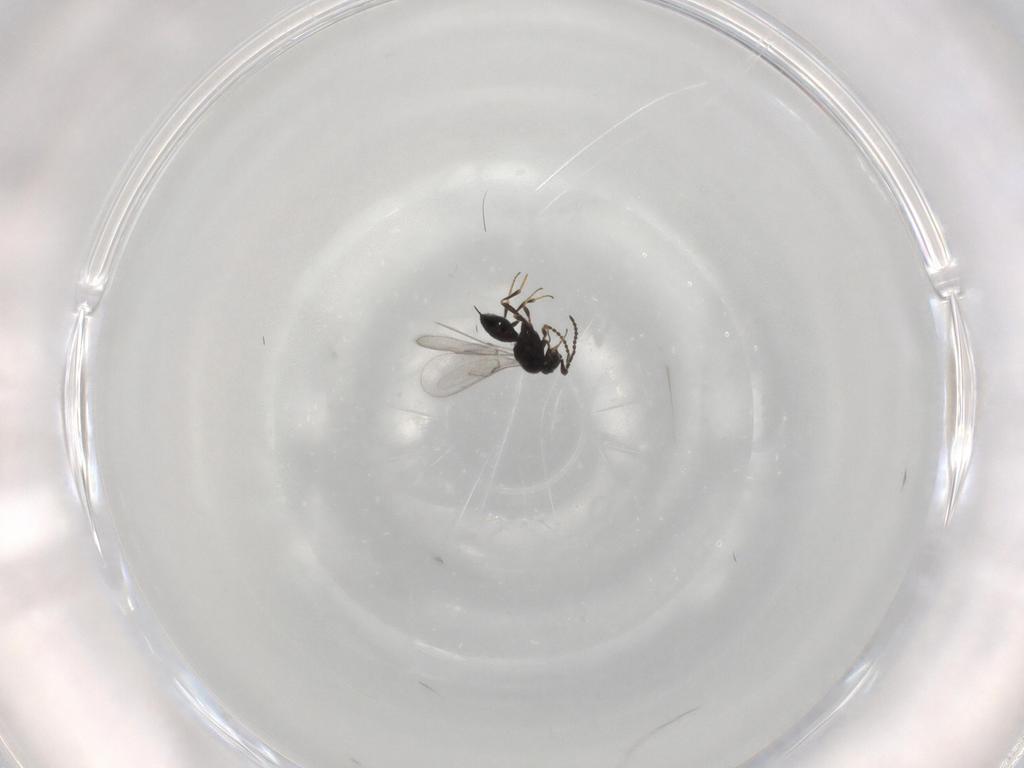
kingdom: Animalia
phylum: Arthropoda
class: Insecta
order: Hymenoptera
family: Scelionidae
